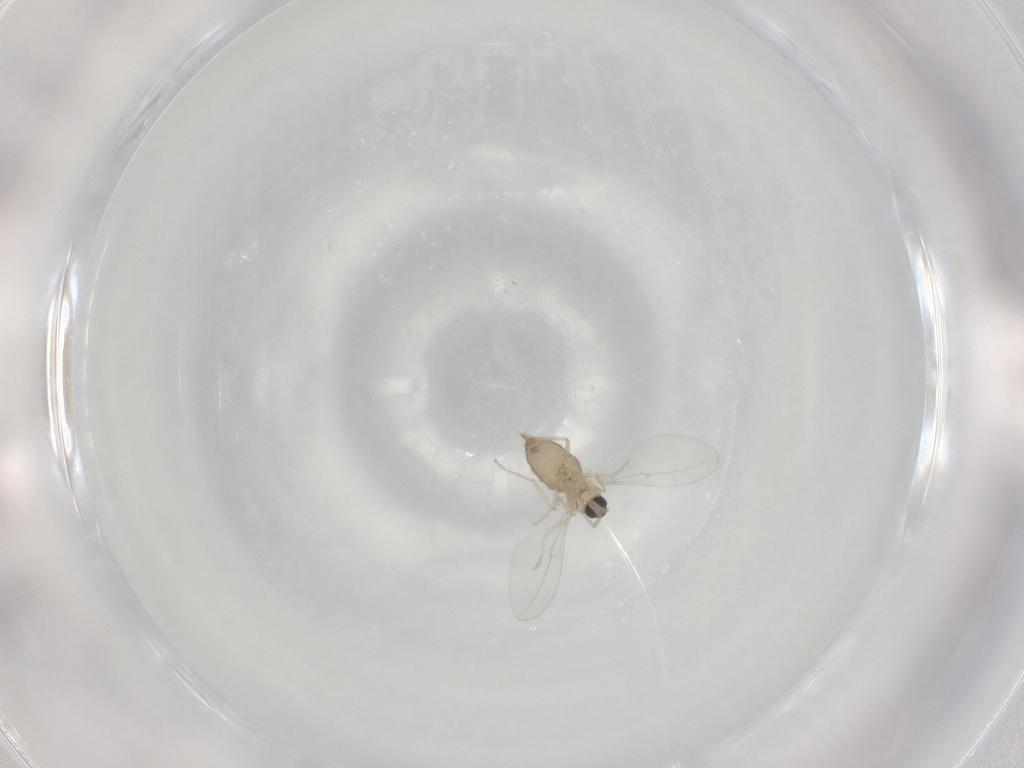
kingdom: Animalia
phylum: Arthropoda
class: Insecta
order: Diptera
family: Cecidomyiidae
